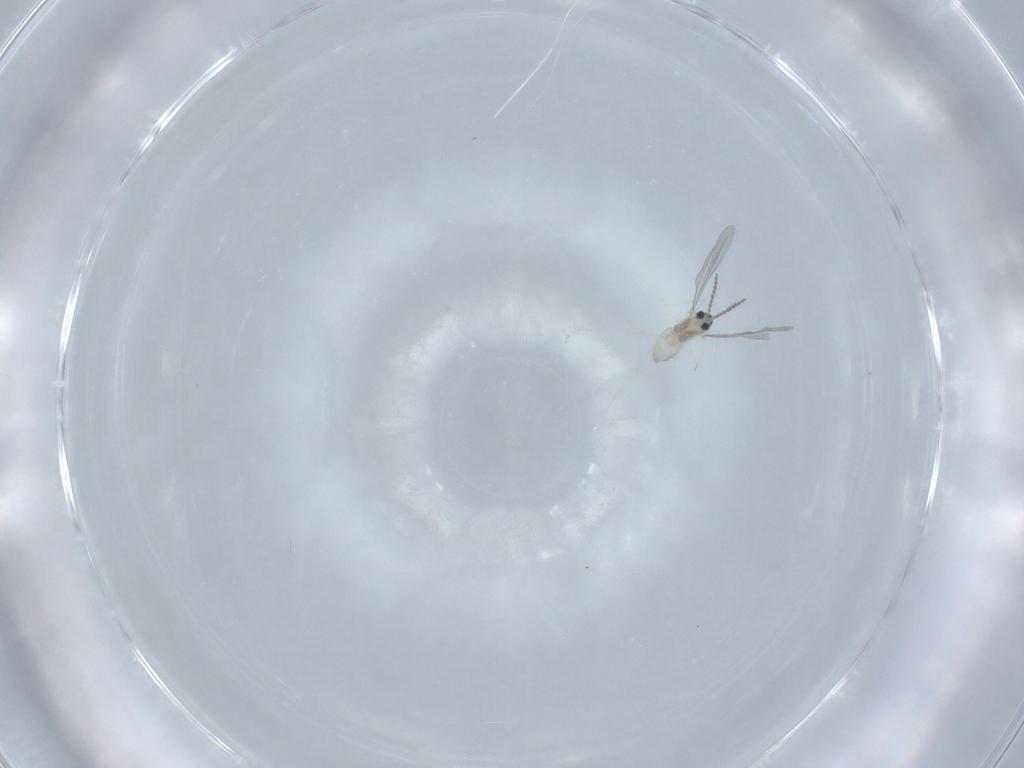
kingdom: Animalia
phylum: Arthropoda
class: Insecta
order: Diptera
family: Cecidomyiidae
